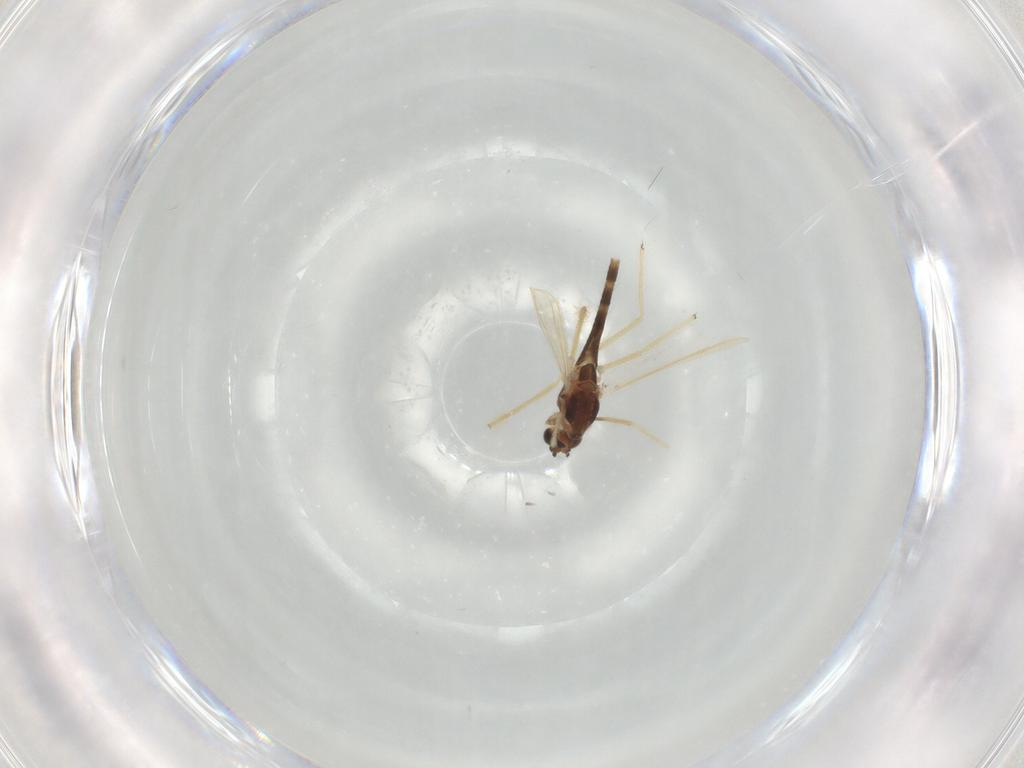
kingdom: Animalia
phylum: Arthropoda
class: Insecta
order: Diptera
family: Chironomidae
